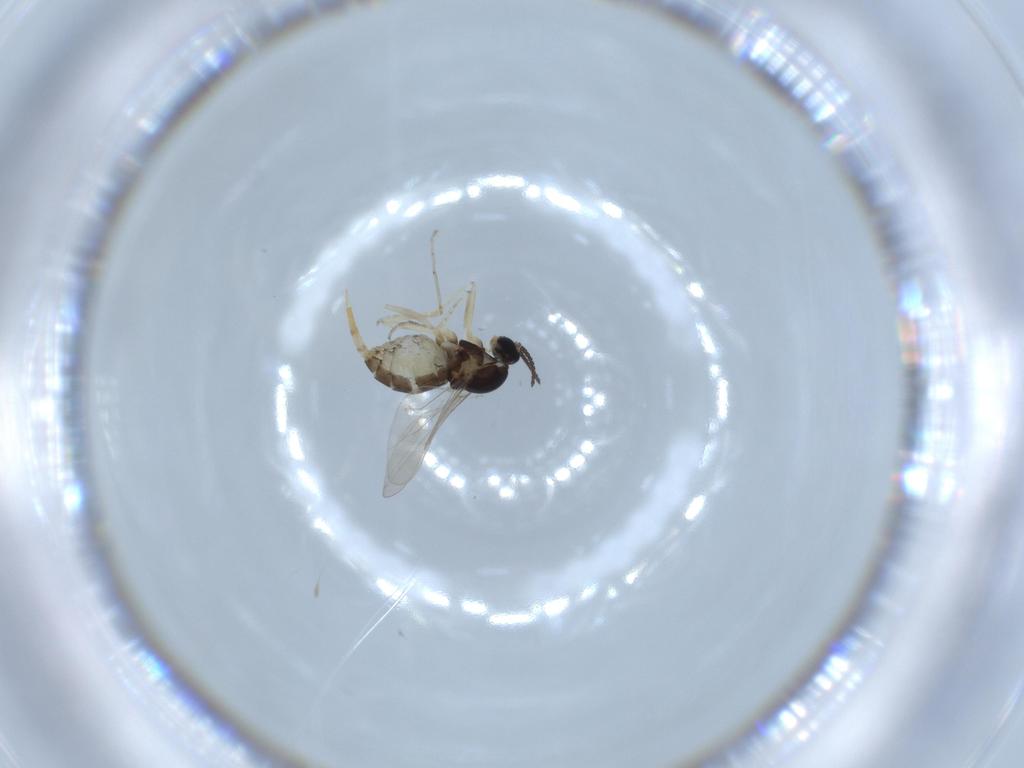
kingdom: Animalia
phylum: Arthropoda
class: Insecta
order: Diptera
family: Cecidomyiidae
